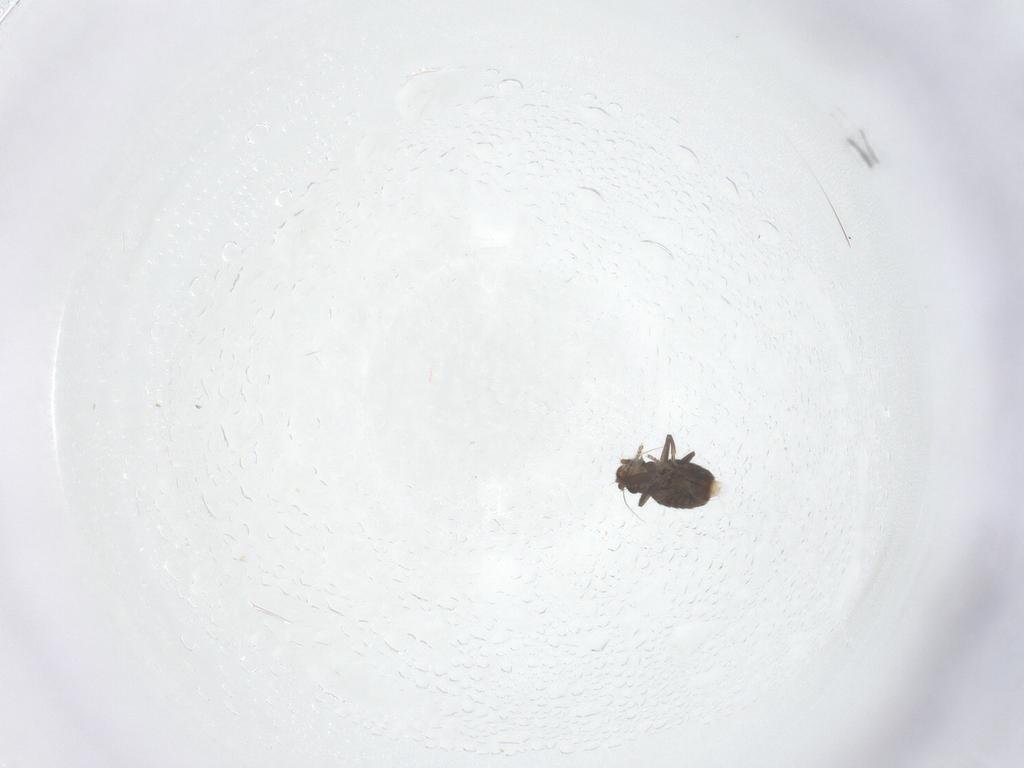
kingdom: Animalia
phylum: Arthropoda
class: Insecta
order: Diptera
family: Phoridae
